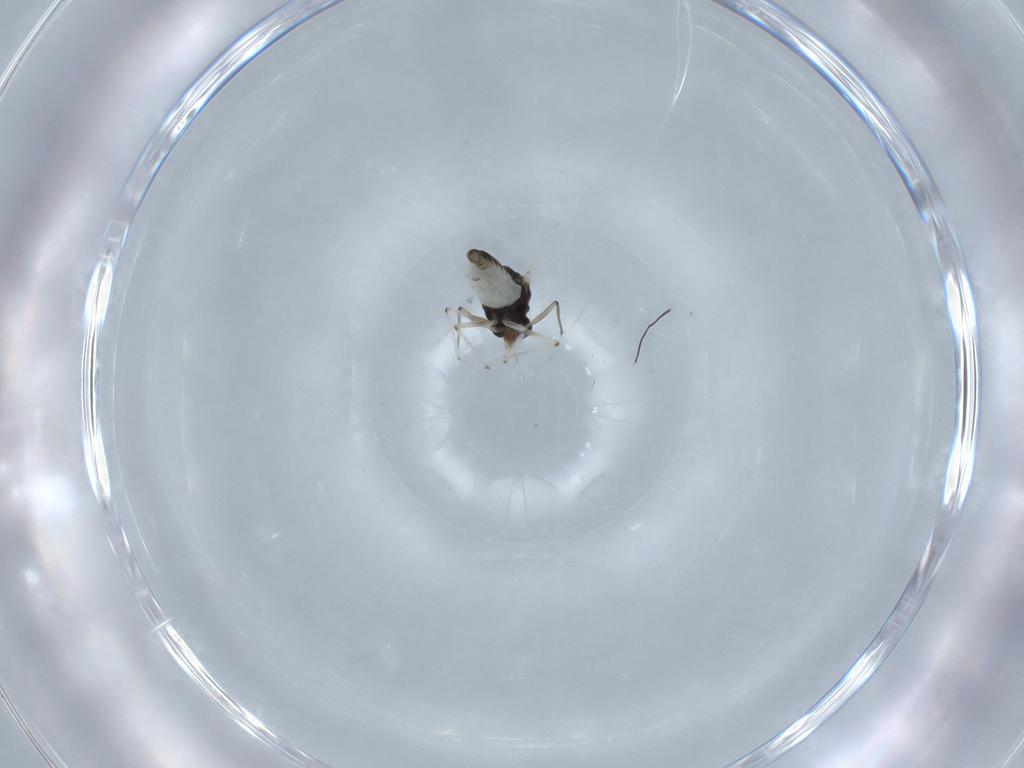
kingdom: Animalia
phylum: Arthropoda
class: Insecta
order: Diptera
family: Chironomidae
